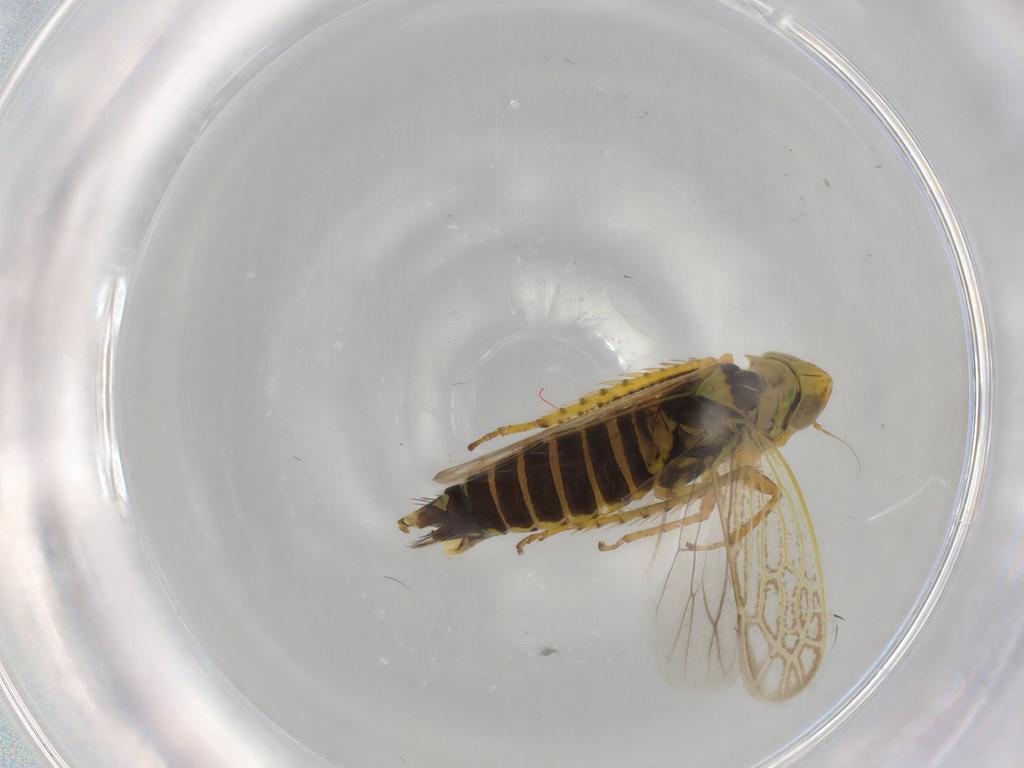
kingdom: Animalia
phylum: Arthropoda
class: Insecta
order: Hemiptera
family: Cicadellidae
